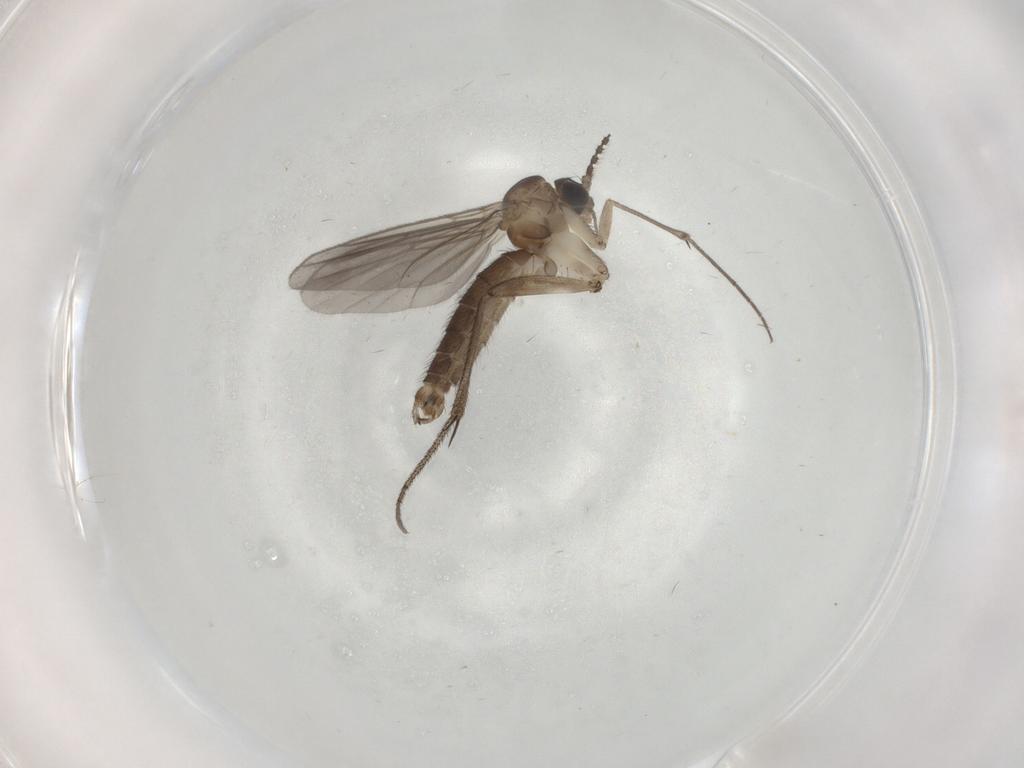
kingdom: Animalia
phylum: Arthropoda
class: Insecta
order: Diptera
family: Mycetophilidae
